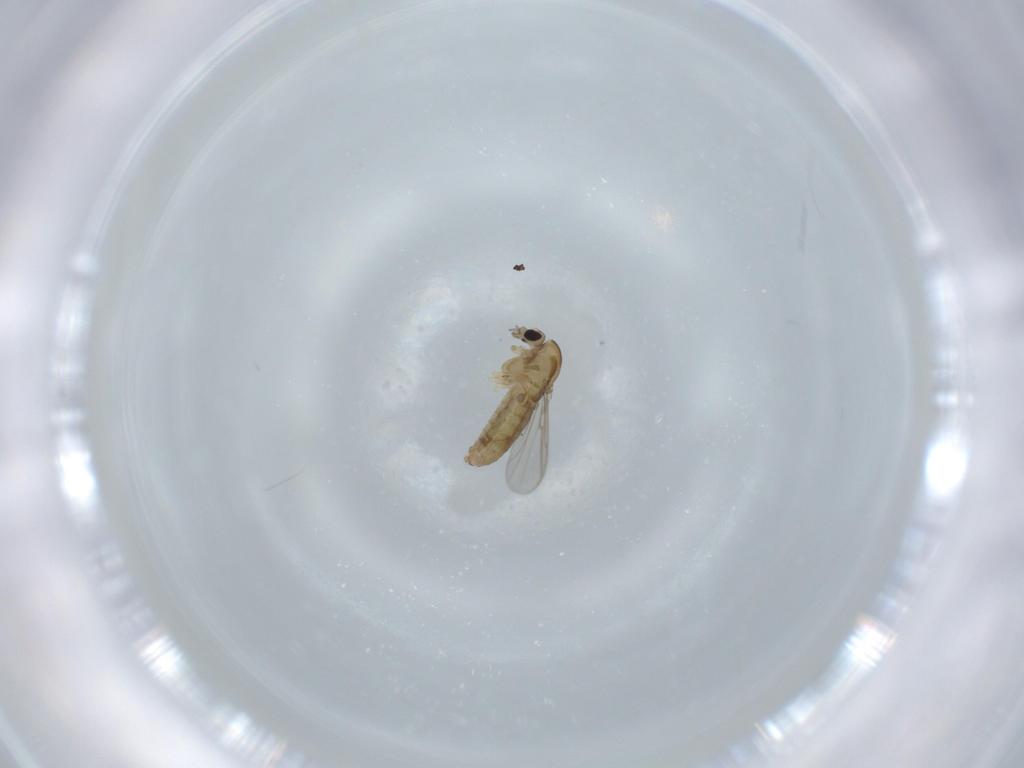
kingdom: Animalia
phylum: Arthropoda
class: Insecta
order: Diptera
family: Chironomidae
